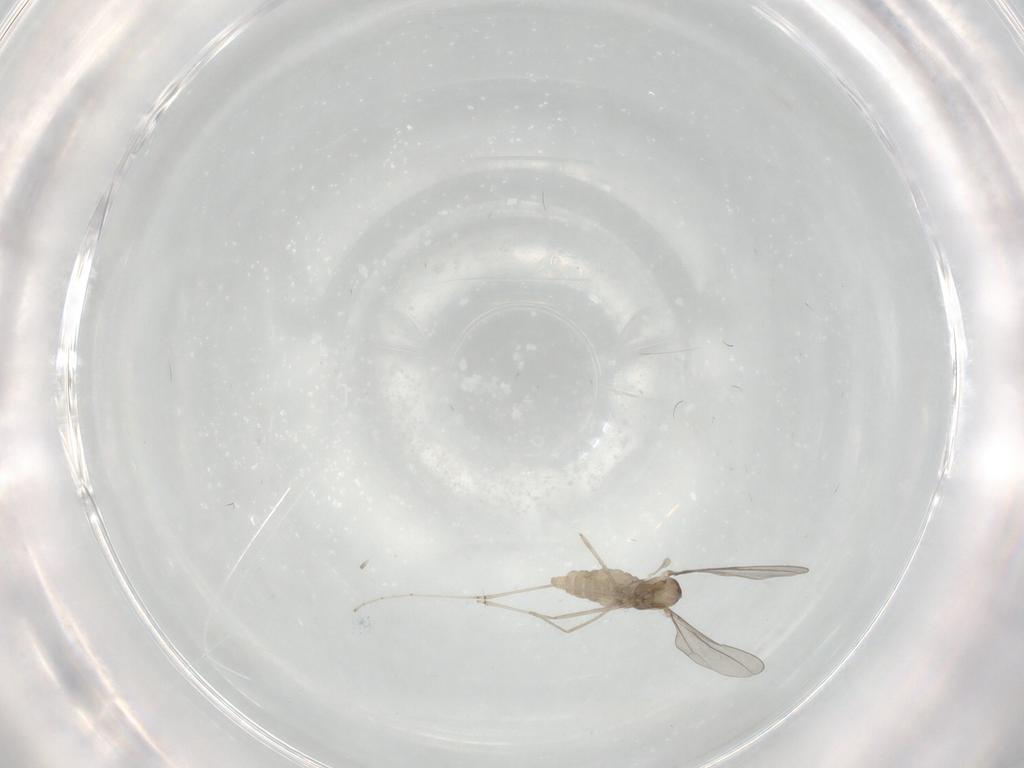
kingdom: Animalia
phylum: Arthropoda
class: Insecta
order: Diptera
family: Cecidomyiidae
